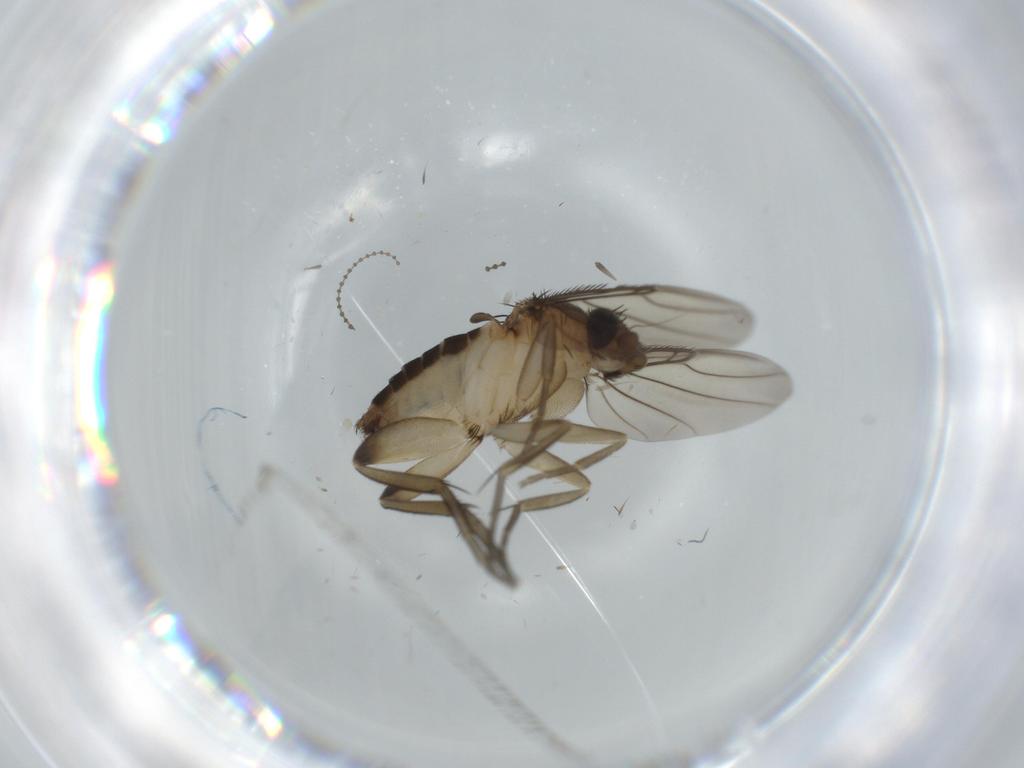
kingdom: Animalia
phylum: Arthropoda
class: Insecta
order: Diptera
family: Phoridae
